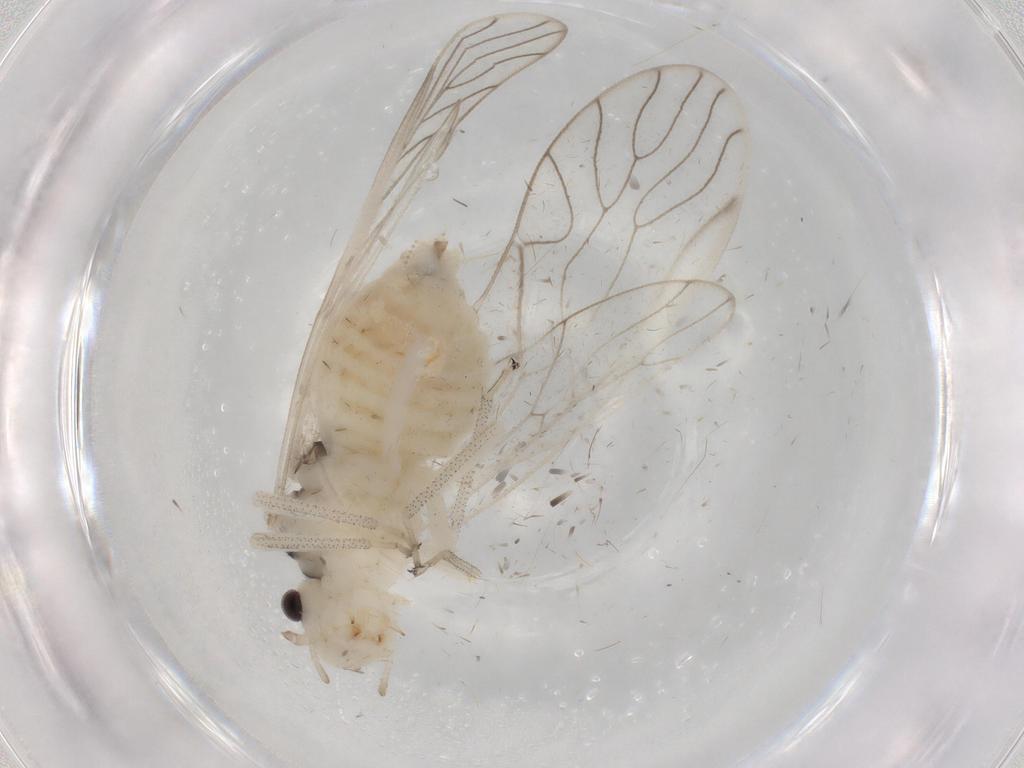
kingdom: Animalia
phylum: Arthropoda
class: Insecta
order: Psocodea
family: Amphipsocidae
